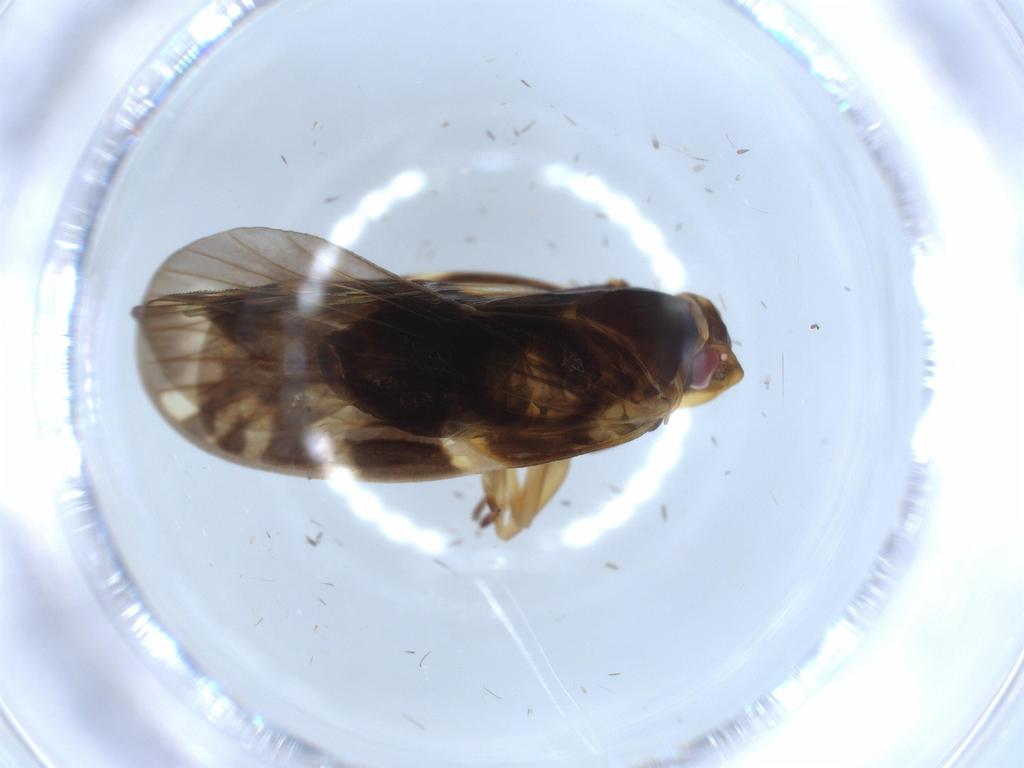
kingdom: Animalia
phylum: Arthropoda
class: Insecta
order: Hemiptera
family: Cixiidae
